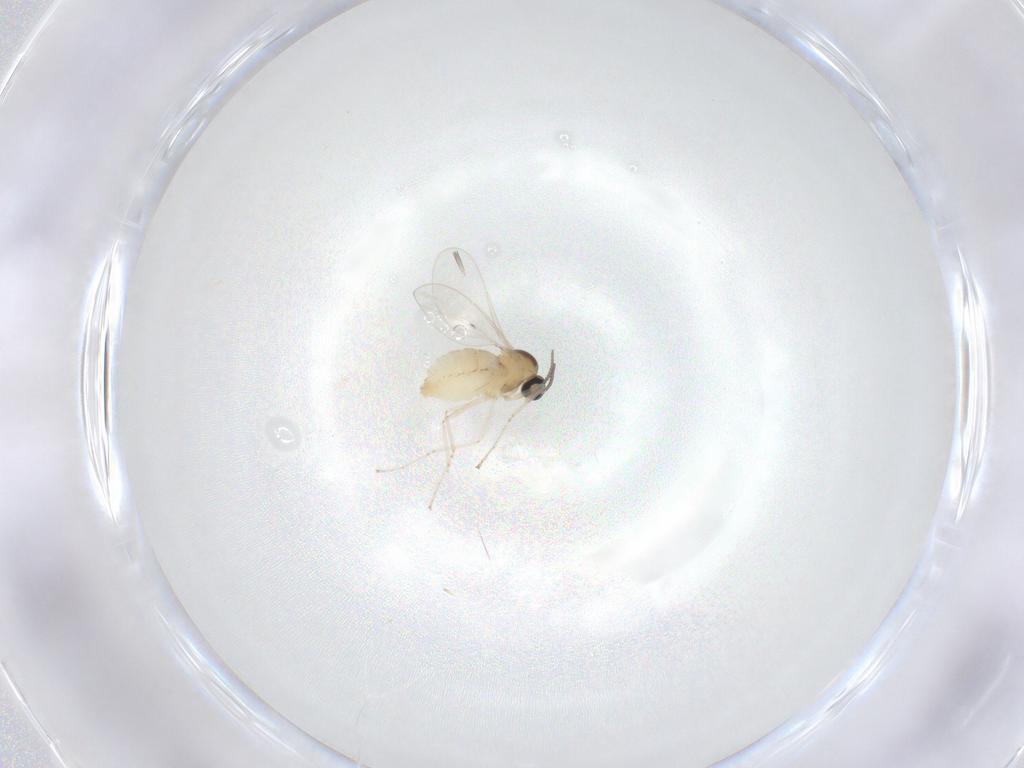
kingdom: Animalia
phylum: Arthropoda
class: Insecta
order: Diptera
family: Cecidomyiidae
